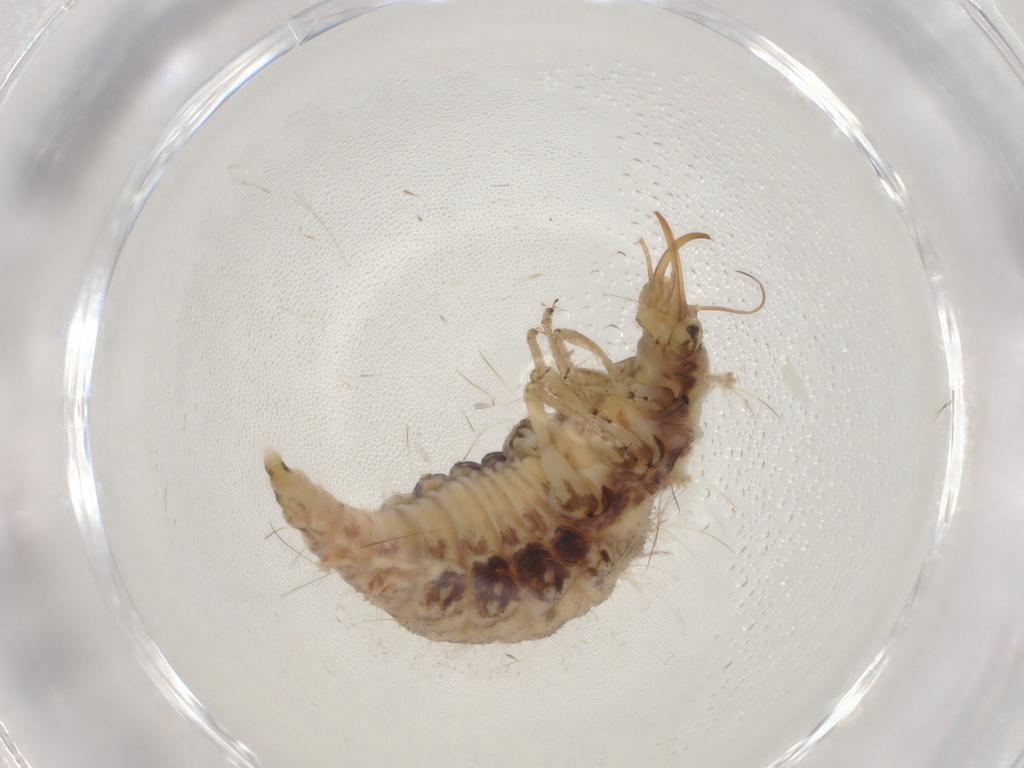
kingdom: Animalia
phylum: Arthropoda
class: Insecta
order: Neuroptera
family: Chrysopidae
